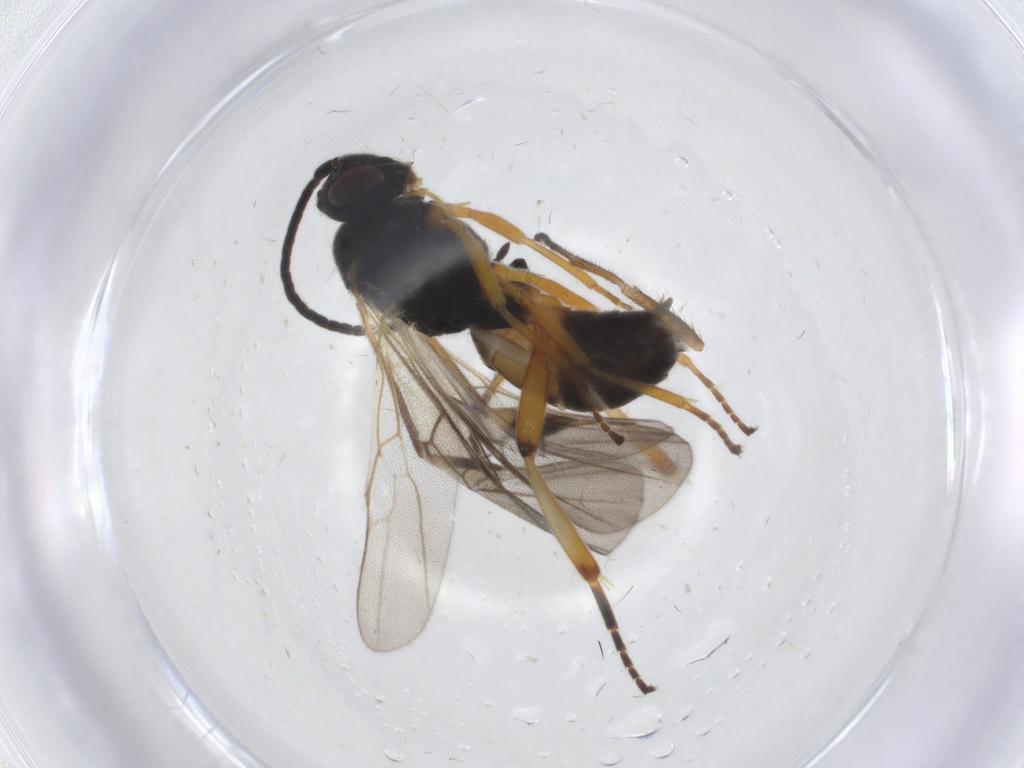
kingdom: Animalia
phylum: Arthropoda
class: Insecta
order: Hymenoptera
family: Braconidae
